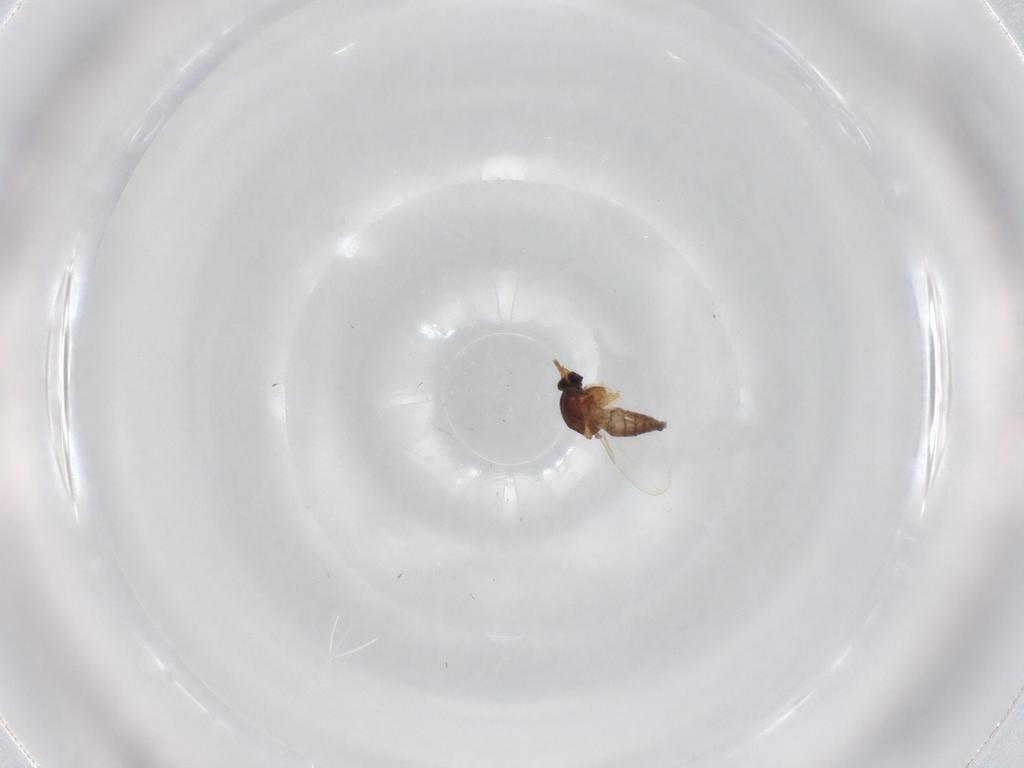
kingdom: Animalia
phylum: Arthropoda
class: Insecta
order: Diptera
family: Ceratopogonidae
